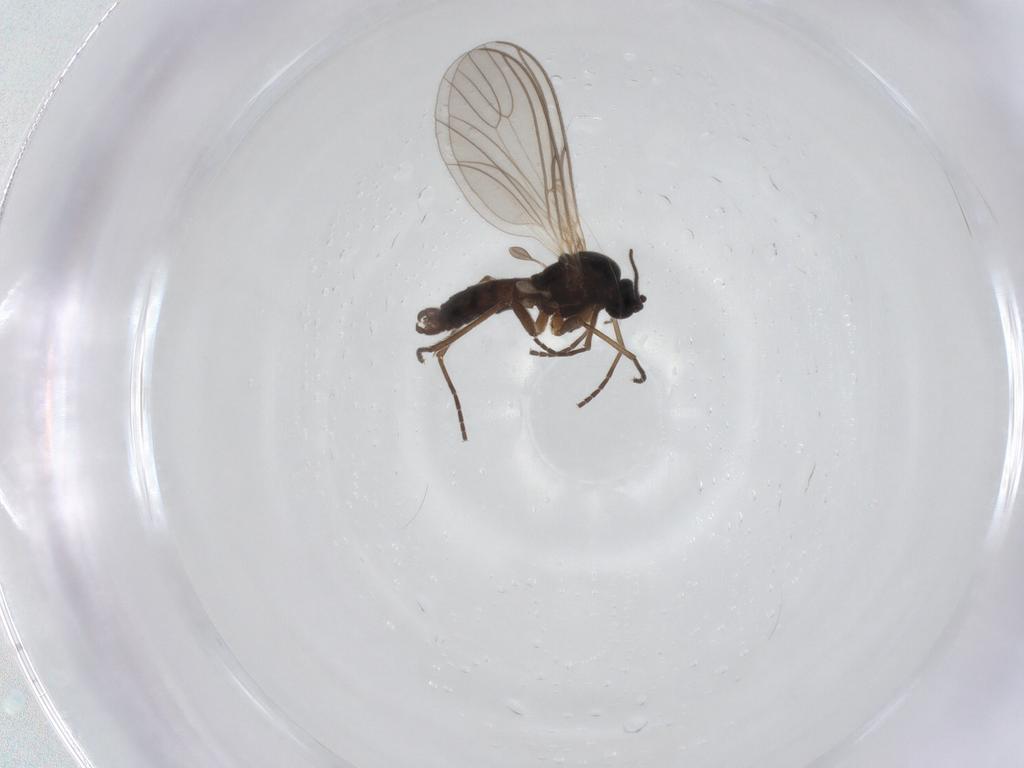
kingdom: Animalia
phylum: Arthropoda
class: Insecta
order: Diptera
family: Sciaridae
